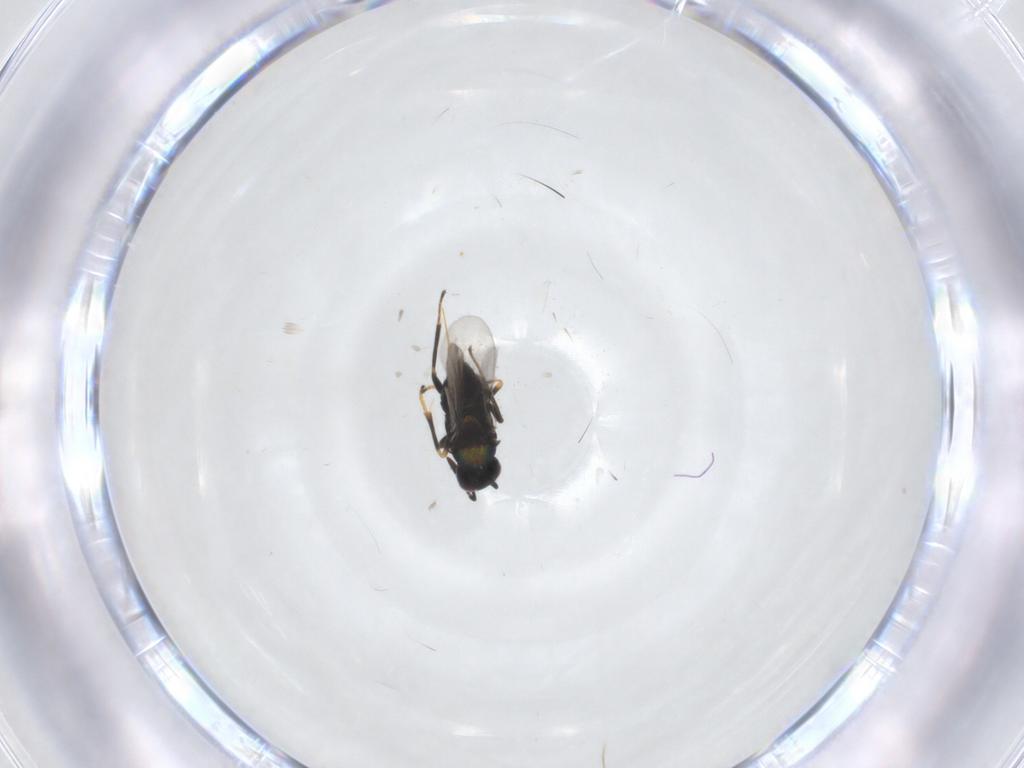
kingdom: Animalia
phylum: Arthropoda
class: Insecta
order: Hymenoptera
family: Encyrtidae
